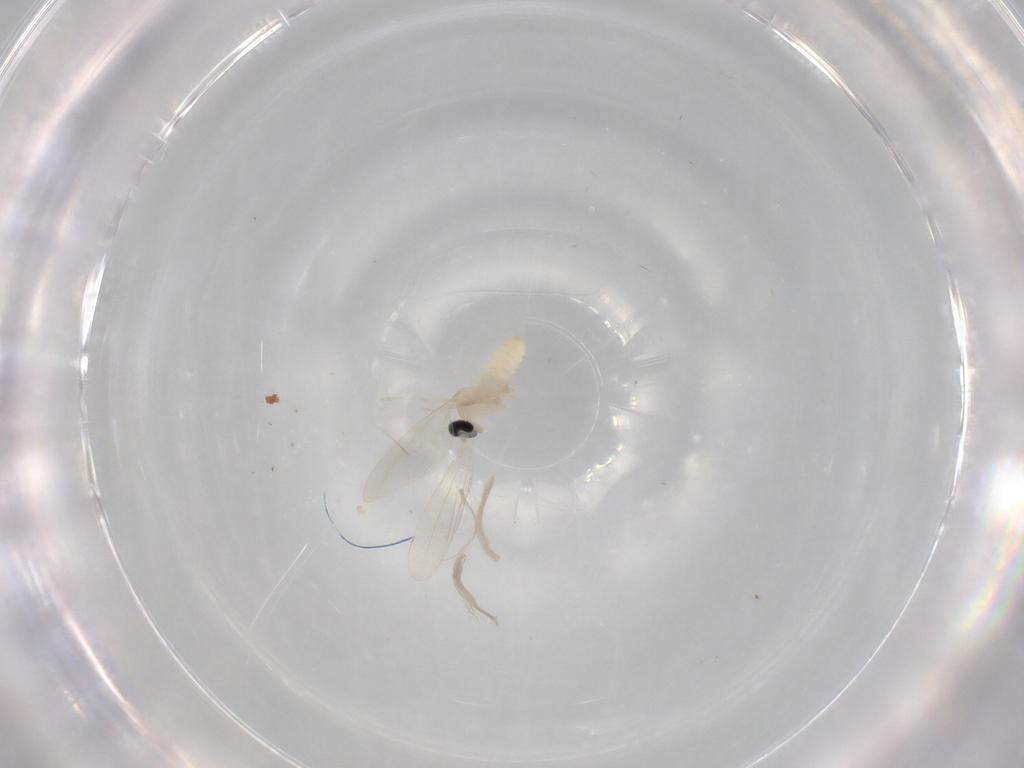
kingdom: Animalia
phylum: Arthropoda
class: Insecta
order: Diptera
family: Cecidomyiidae
